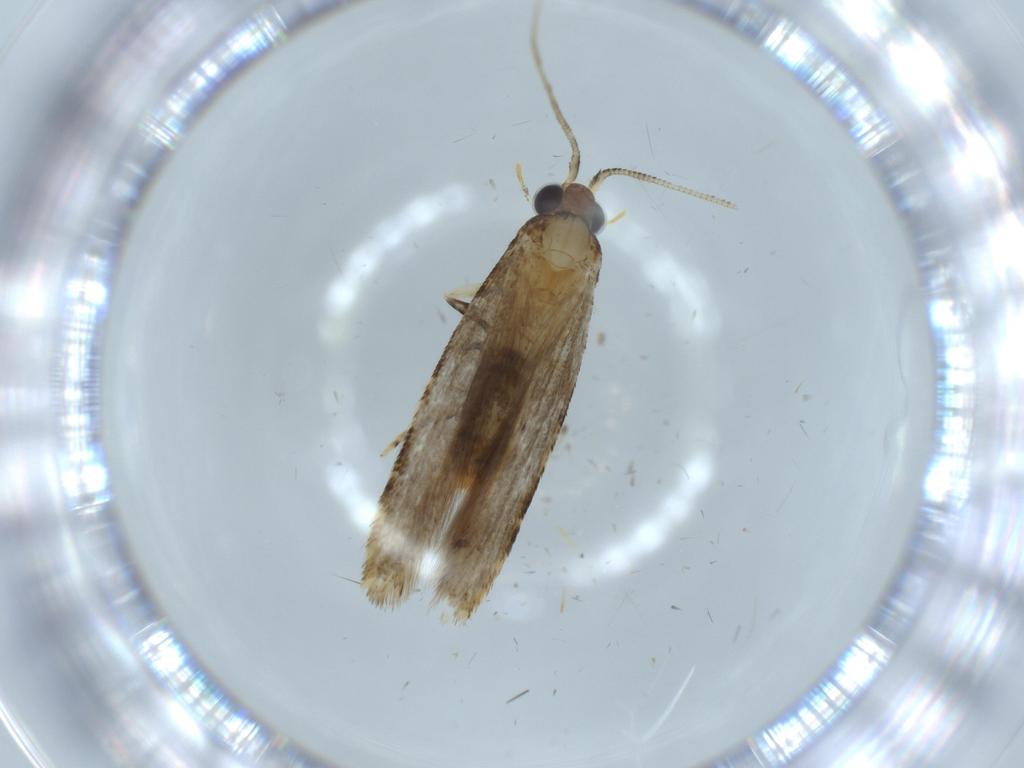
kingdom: Animalia
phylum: Arthropoda
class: Insecta
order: Lepidoptera
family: Tineidae
